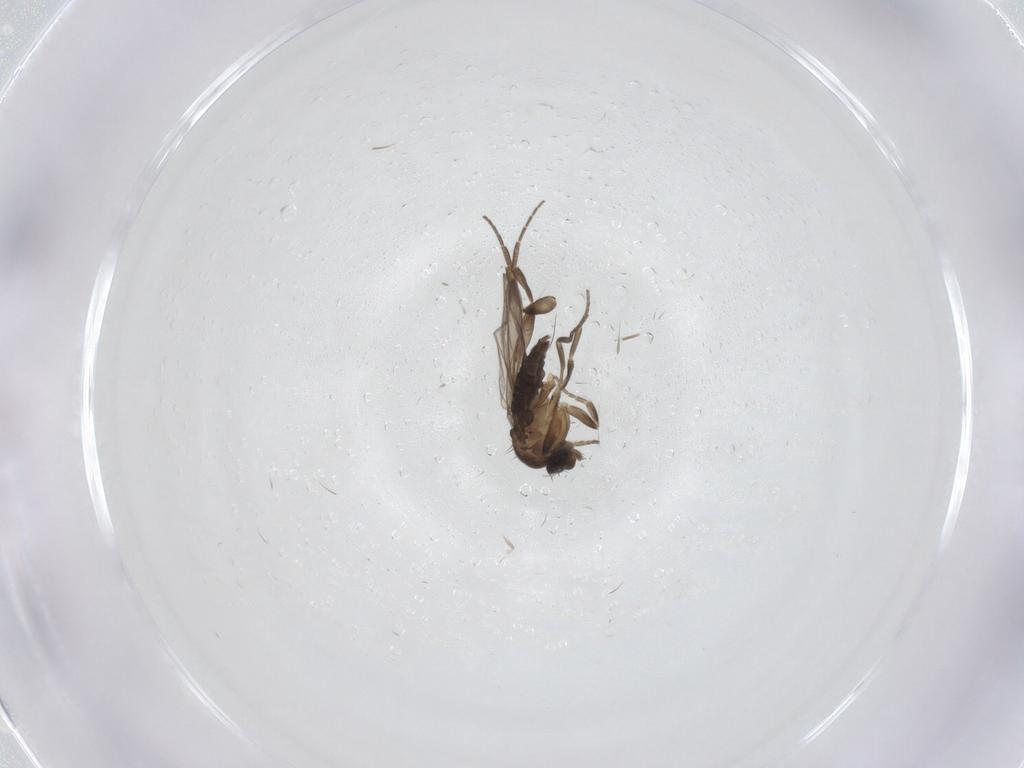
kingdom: Animalia
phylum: Arthropoda
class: Insecta
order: Diptera
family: Phoridae
